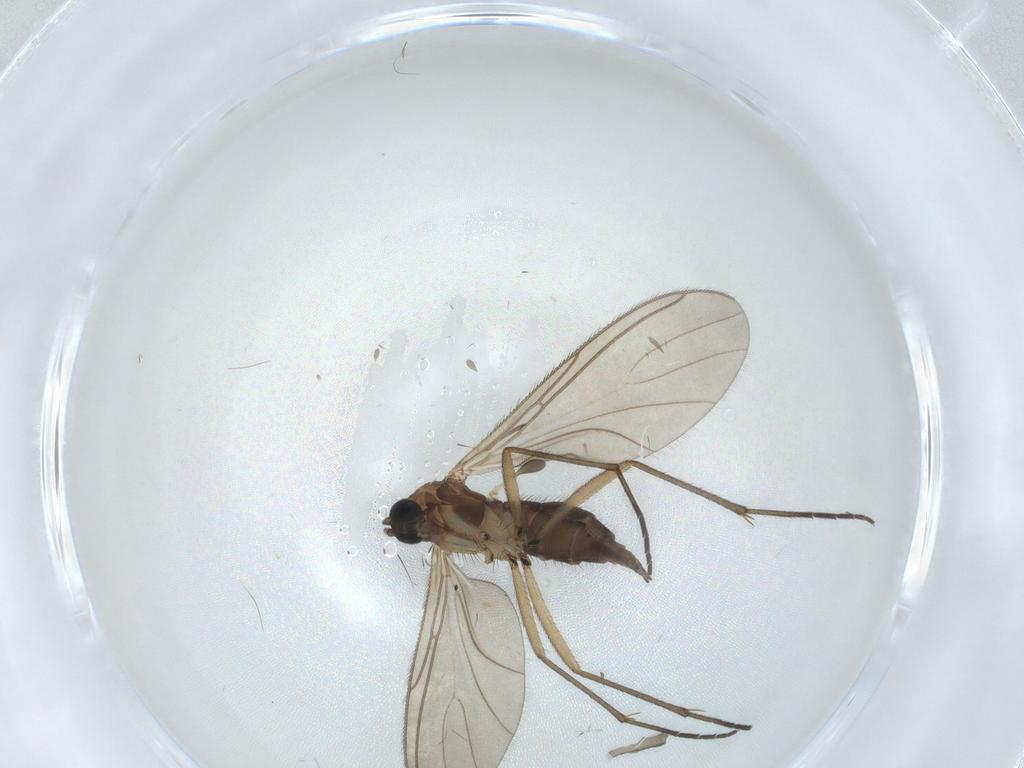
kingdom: Animalia
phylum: Arthropoda
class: Insecta
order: Diptera
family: Sciaridae
